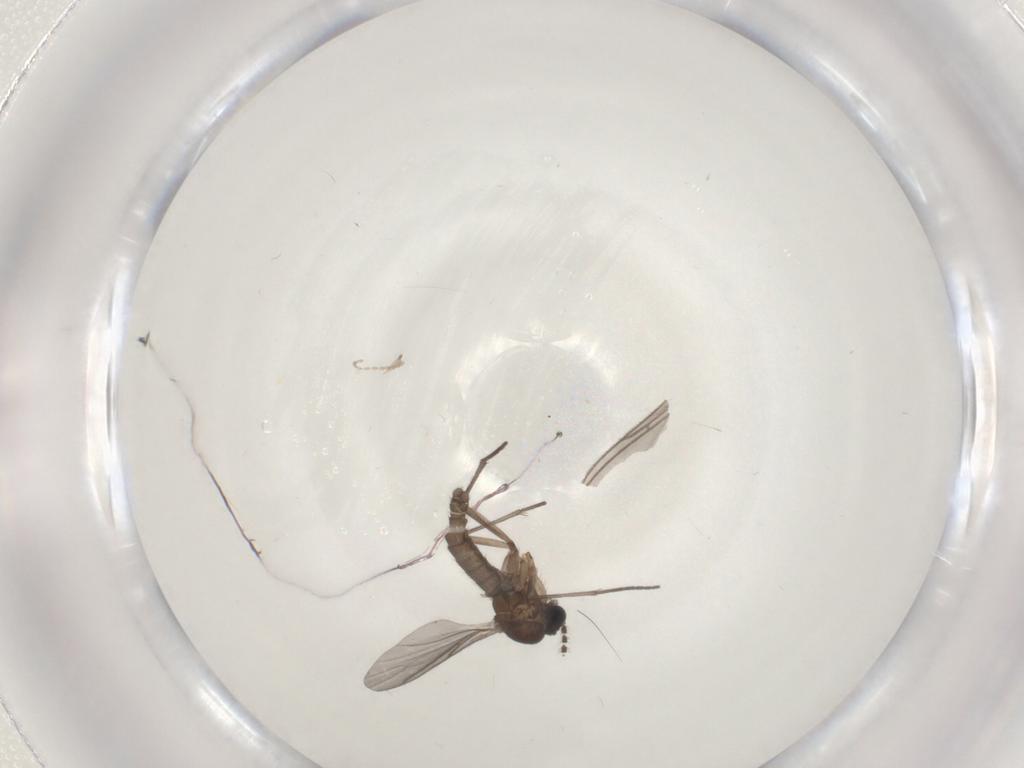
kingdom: Animalia
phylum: Arthropoda
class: Insecta
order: Diptera
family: Sciaridae
